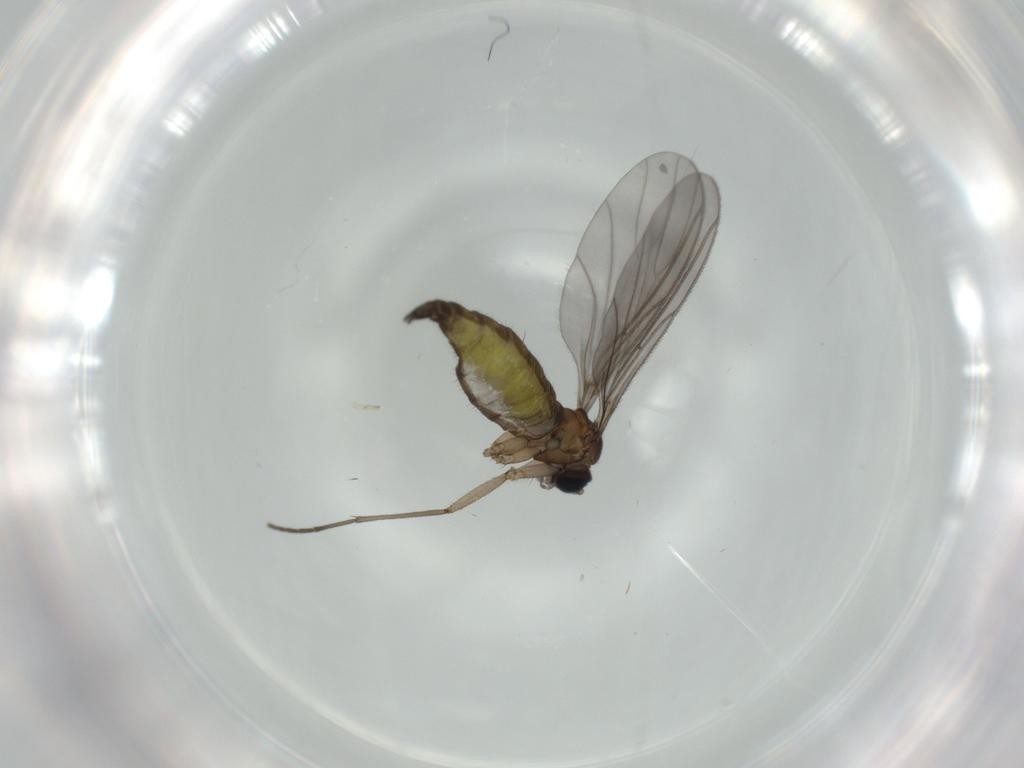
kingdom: Animalia
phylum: Arthropoda
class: Insecta
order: Diptera
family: Sciaridae
